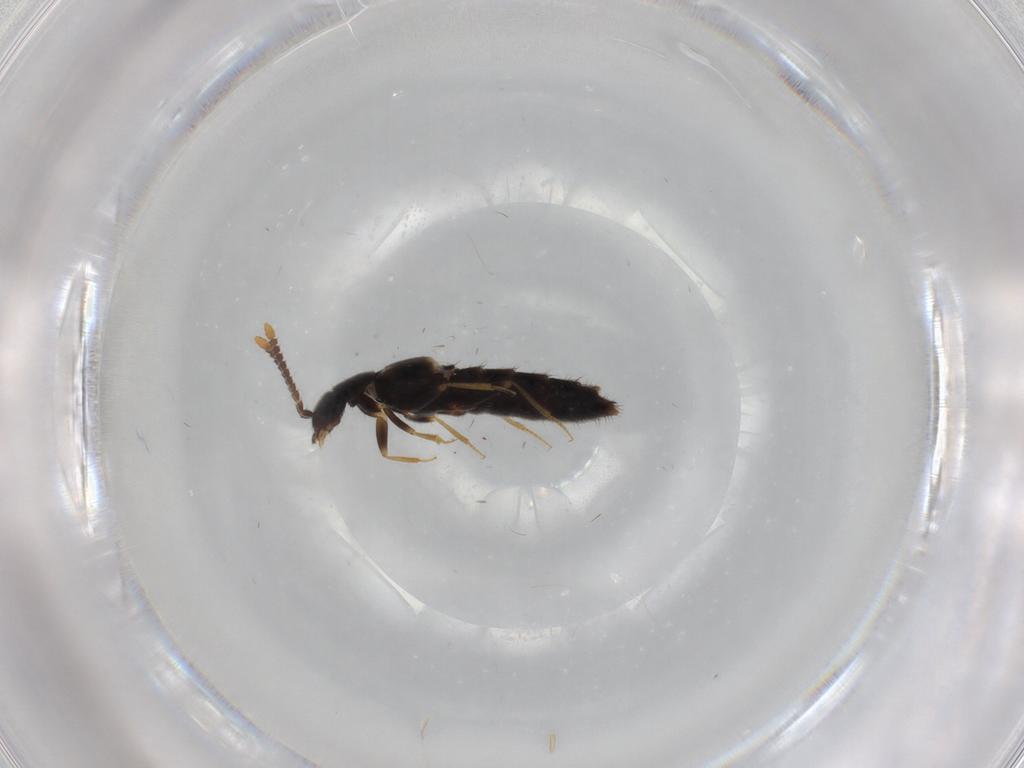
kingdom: Animalia
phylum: Arthropoda
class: Insecta
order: Coleoptera
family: Staphylinidae
